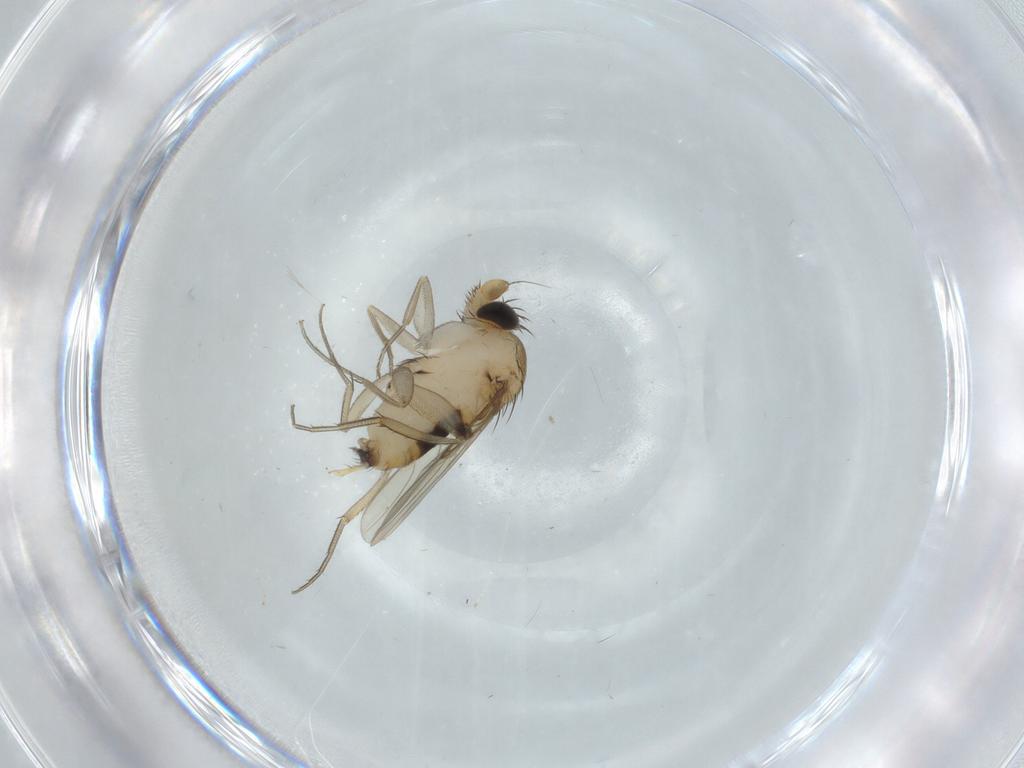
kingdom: Animalia
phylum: Arthropoda
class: Insecta
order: Diptera
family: Phoridae
